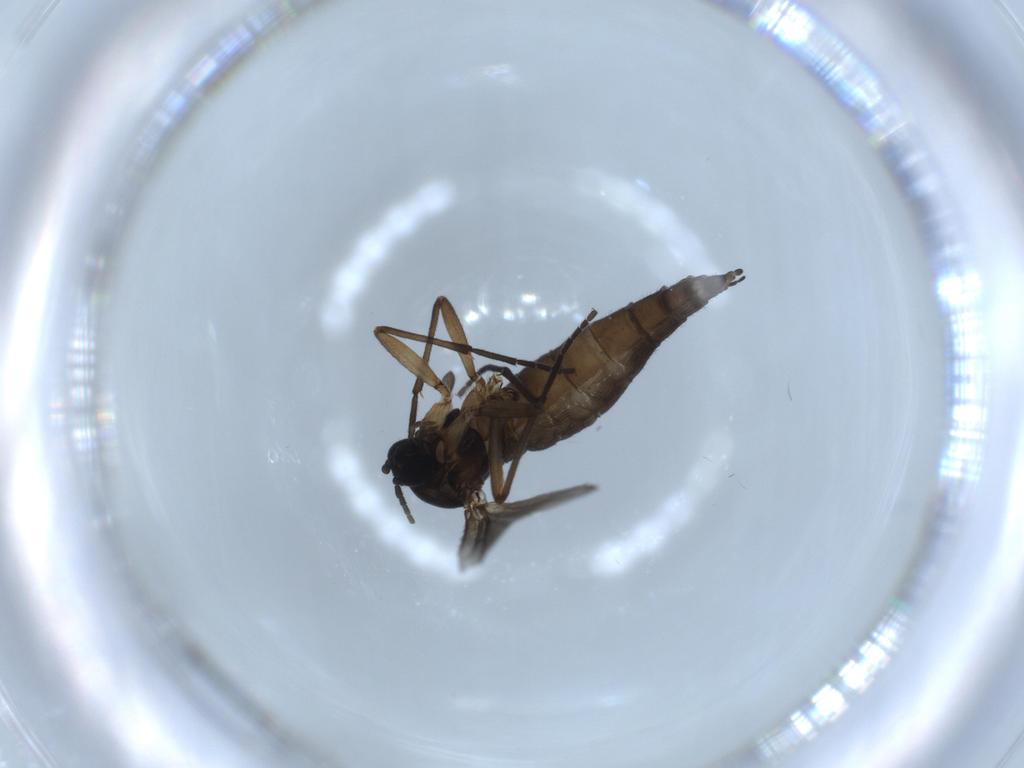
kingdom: Animalia
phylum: Arthropoda
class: Insecta
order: Diptera
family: Sciaridae
